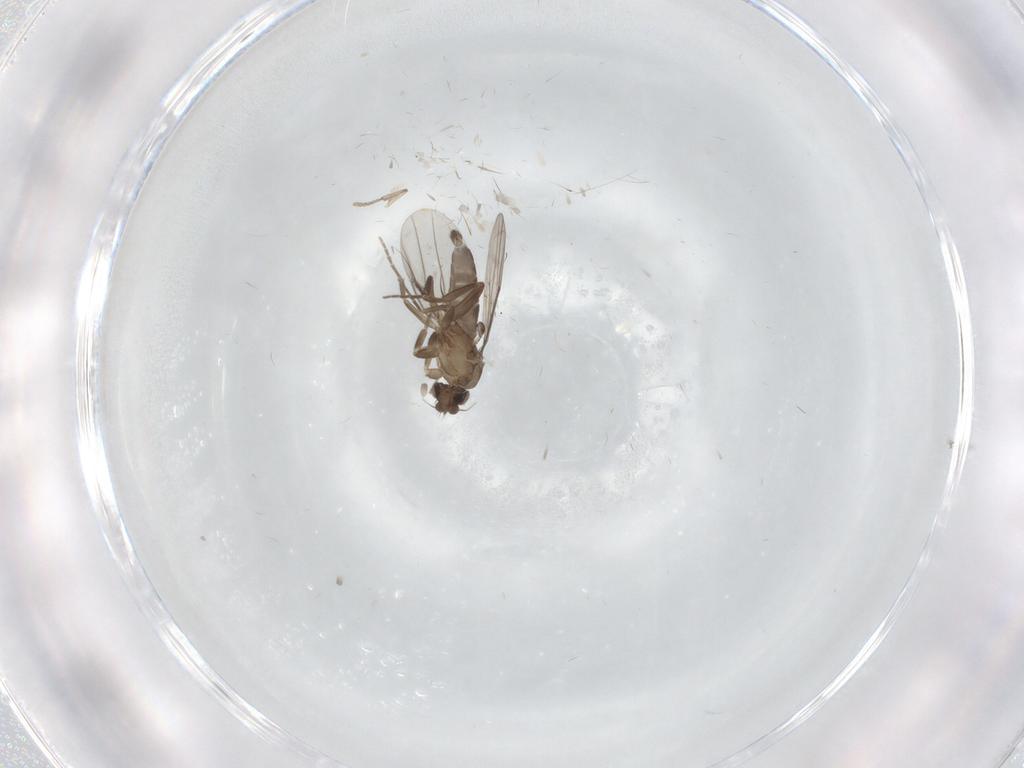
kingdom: Animalia
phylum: Arthropoda
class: Insecta
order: Diptera
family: Psychodidae
